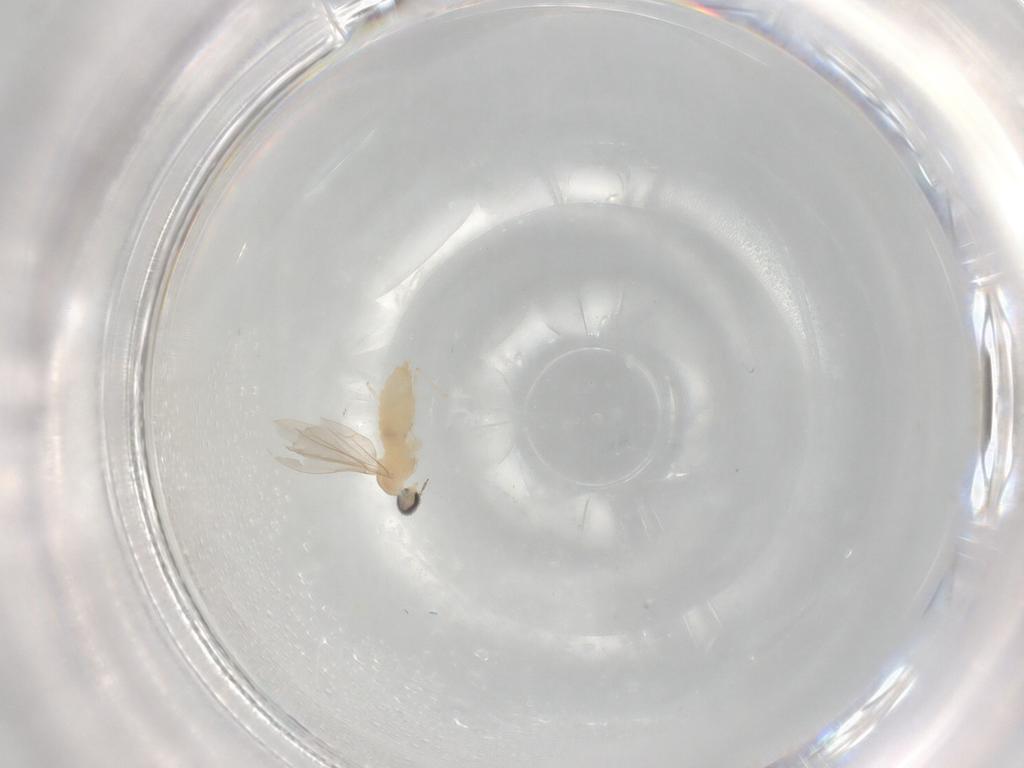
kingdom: Animalia
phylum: Arthropoda
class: Insecta
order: Diptera
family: Cecidomyiidae
